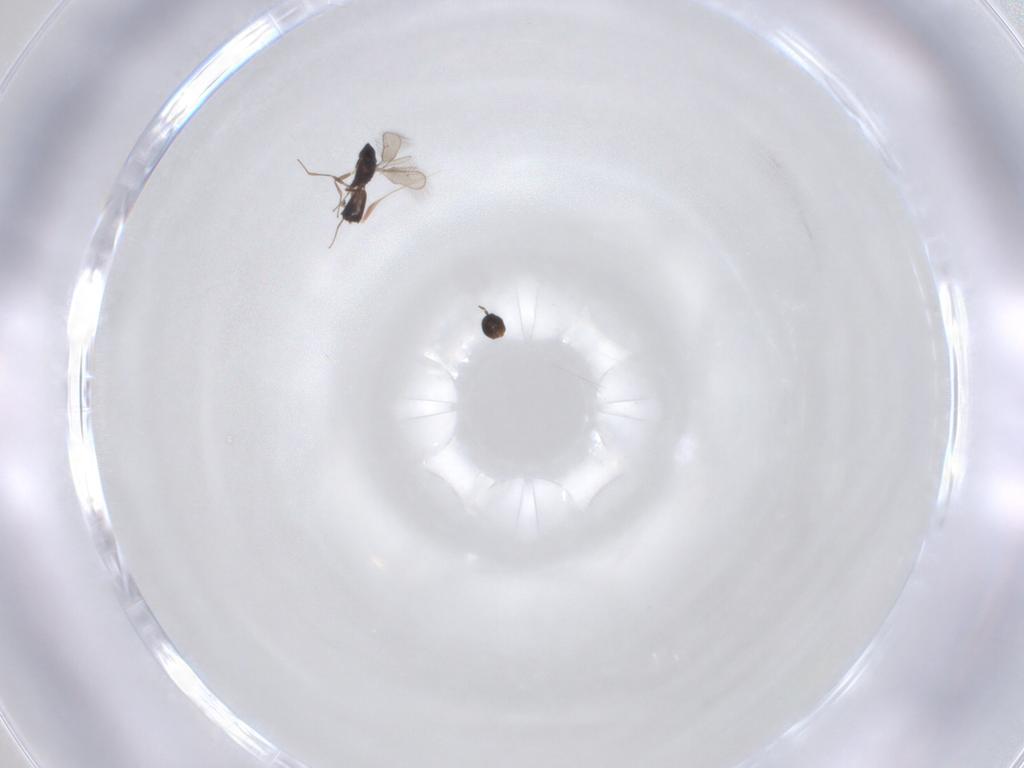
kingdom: Animalia
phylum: Arthropoda
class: Insecta
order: Hymenoptera
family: Pteromalidae
